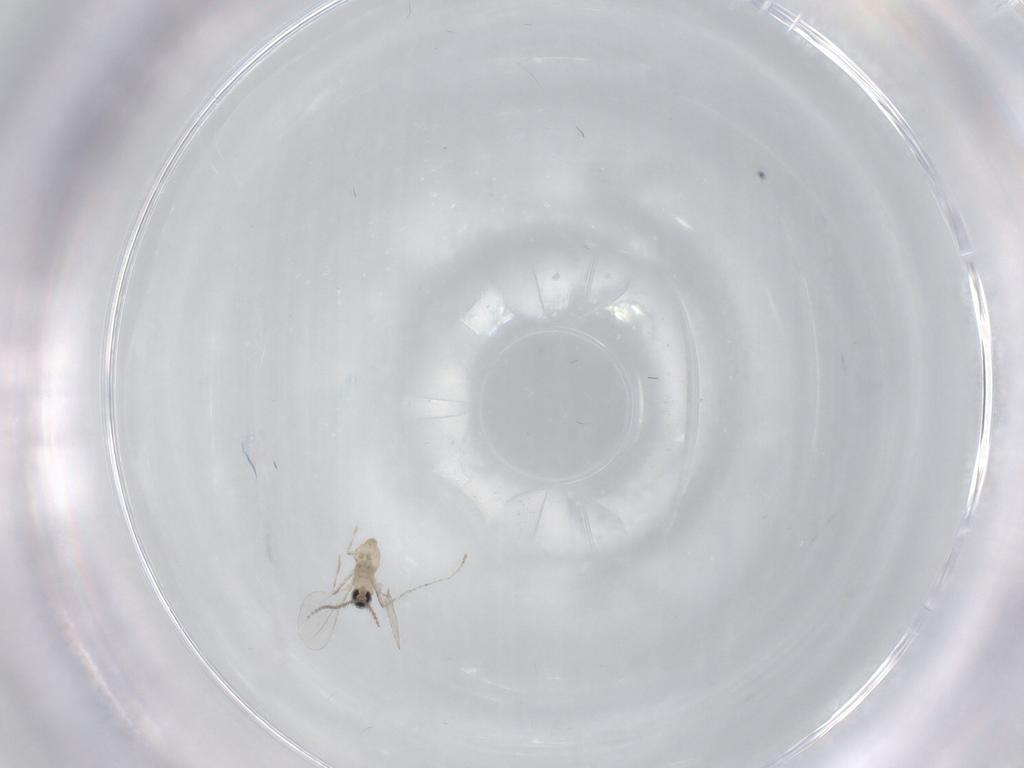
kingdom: Animalia
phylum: Arthropoda
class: Insecta
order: Diptera
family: Cecidomyiidae
